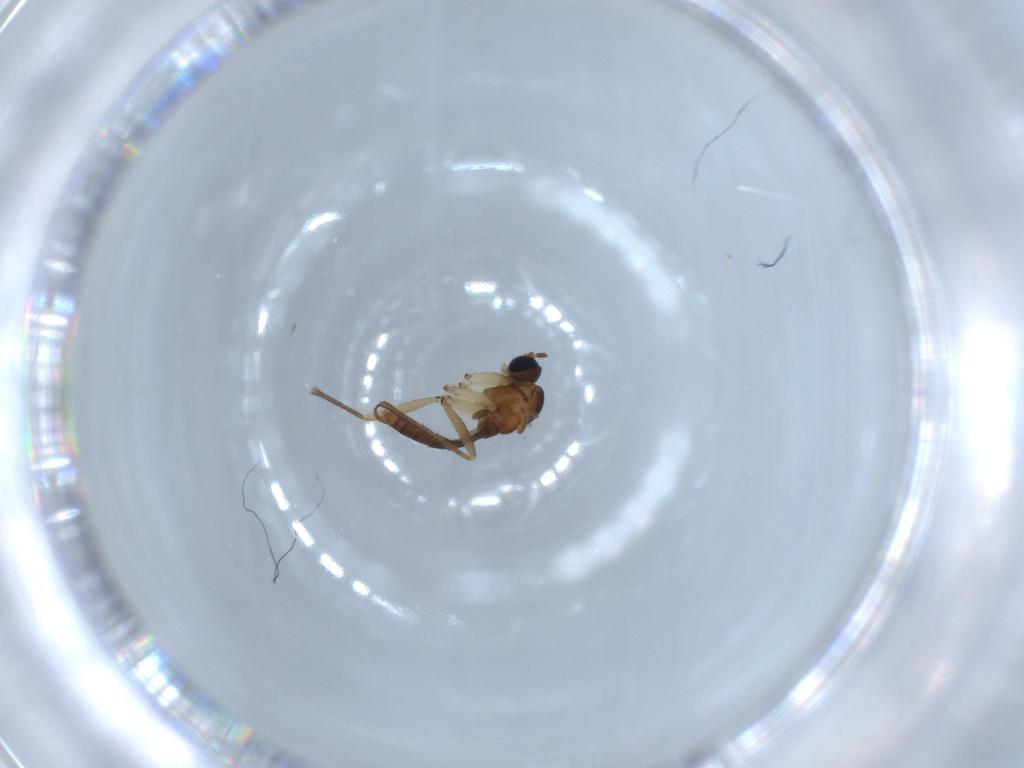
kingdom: Animalia
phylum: Arthropoda
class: Insecta
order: Diptera
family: Sciaridae
